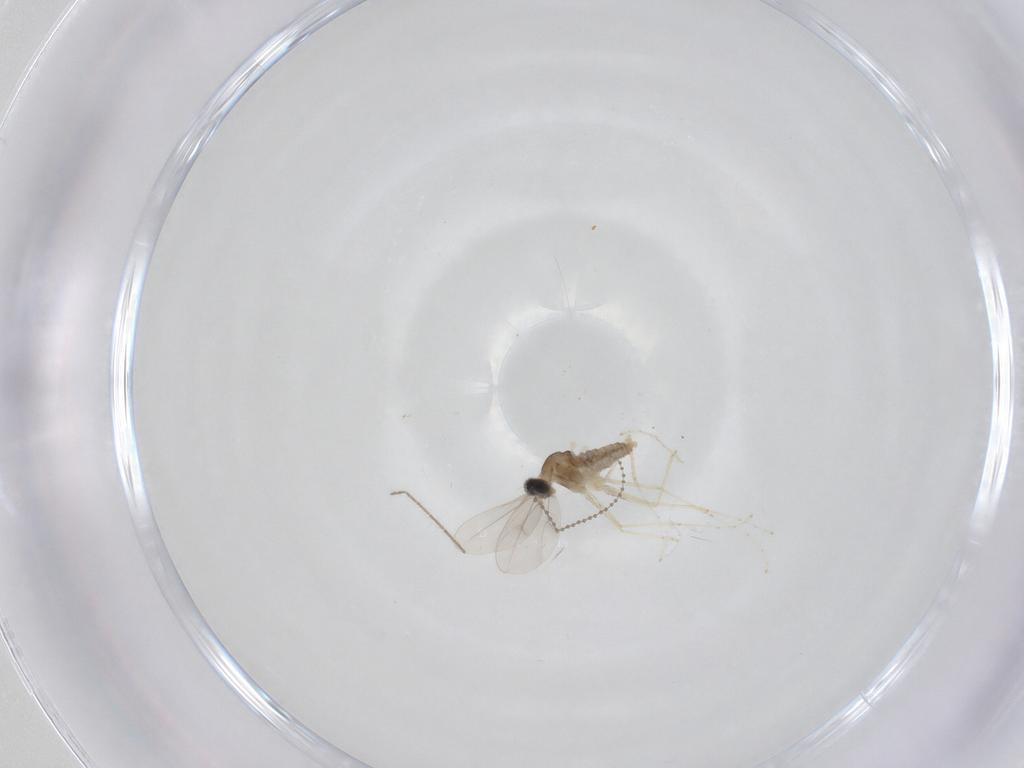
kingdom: Animalia
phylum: Arthropoda
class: Insecta
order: Diptera
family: Cecidomyiidae
